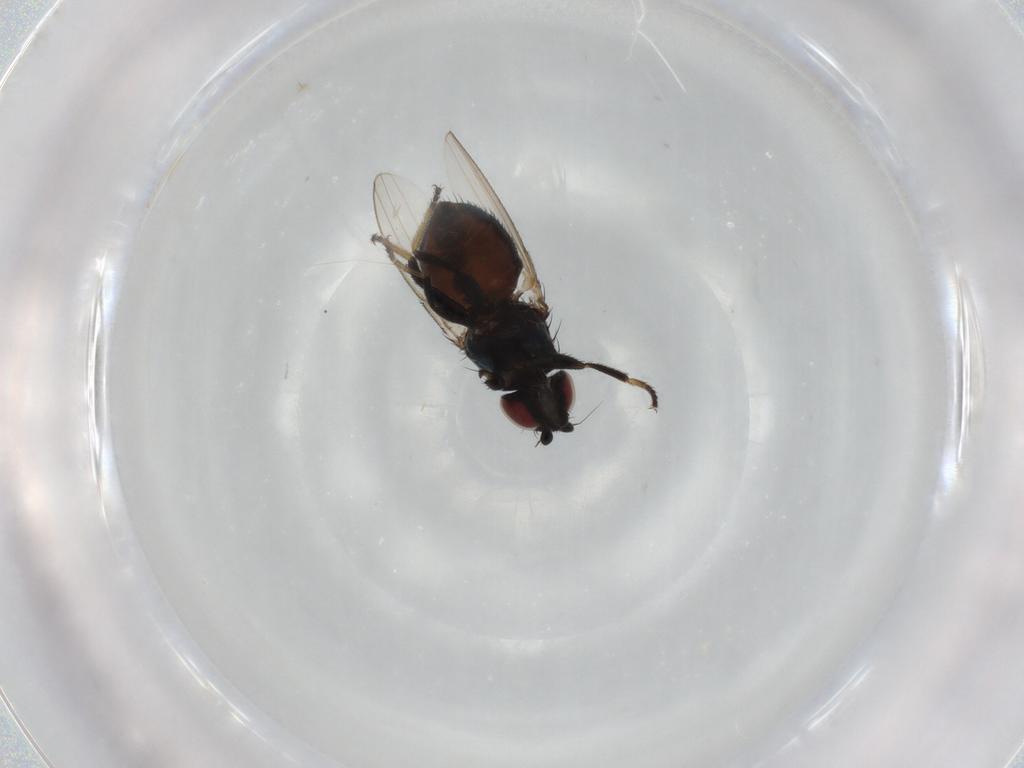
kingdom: Animalia
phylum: Arthropoda
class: Insecta
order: Diptera
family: Milichiidae
